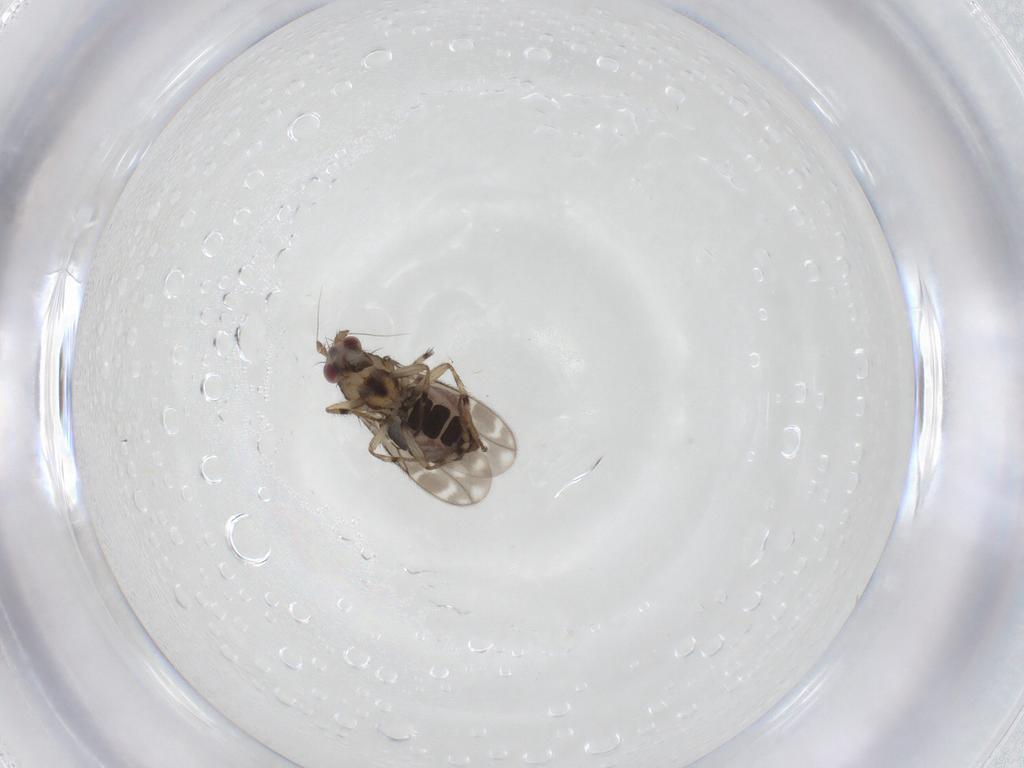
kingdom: Animalia
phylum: Arthropoda
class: Insecta
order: Diptera
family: Sphaeroceridae
